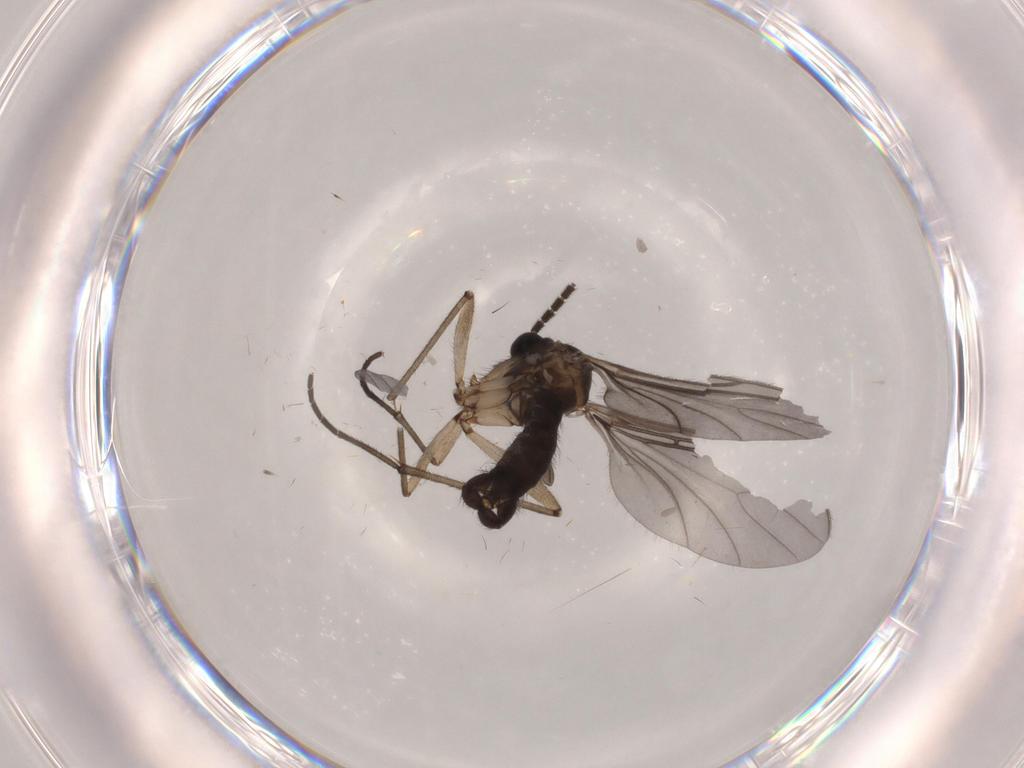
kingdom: Animalia
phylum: Arthropoda
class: Insecta
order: Diptera
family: Sciaridae
